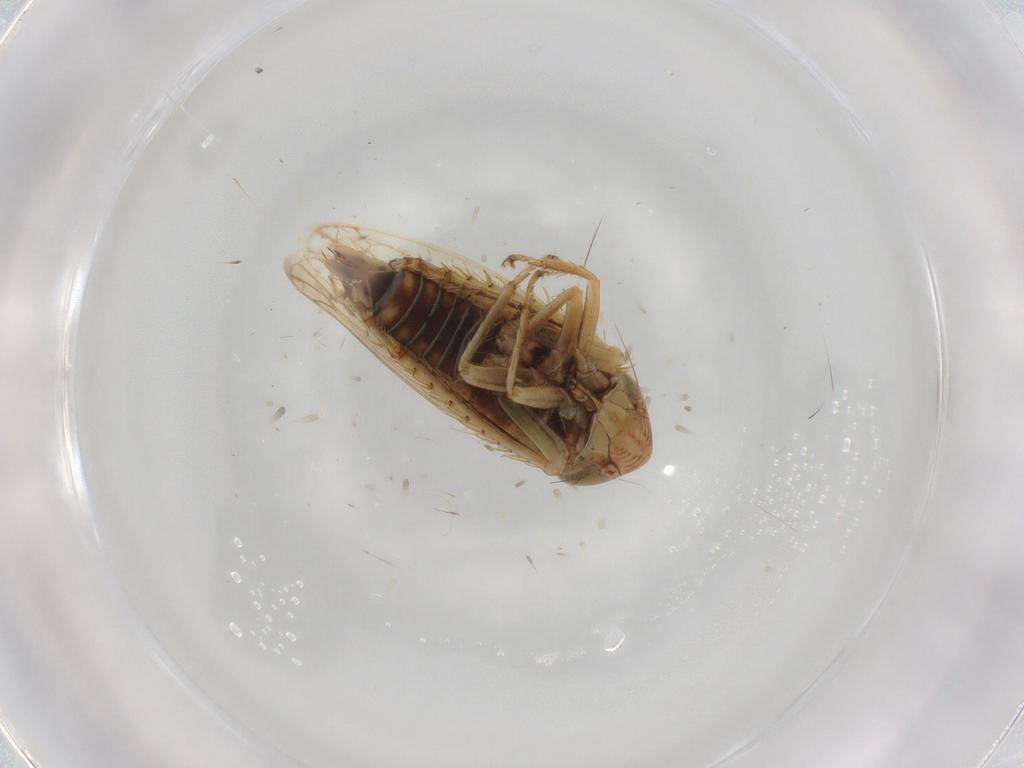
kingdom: Animalia
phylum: Arthropoda
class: Insecta
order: Hemiptera
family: Cicadellidae
